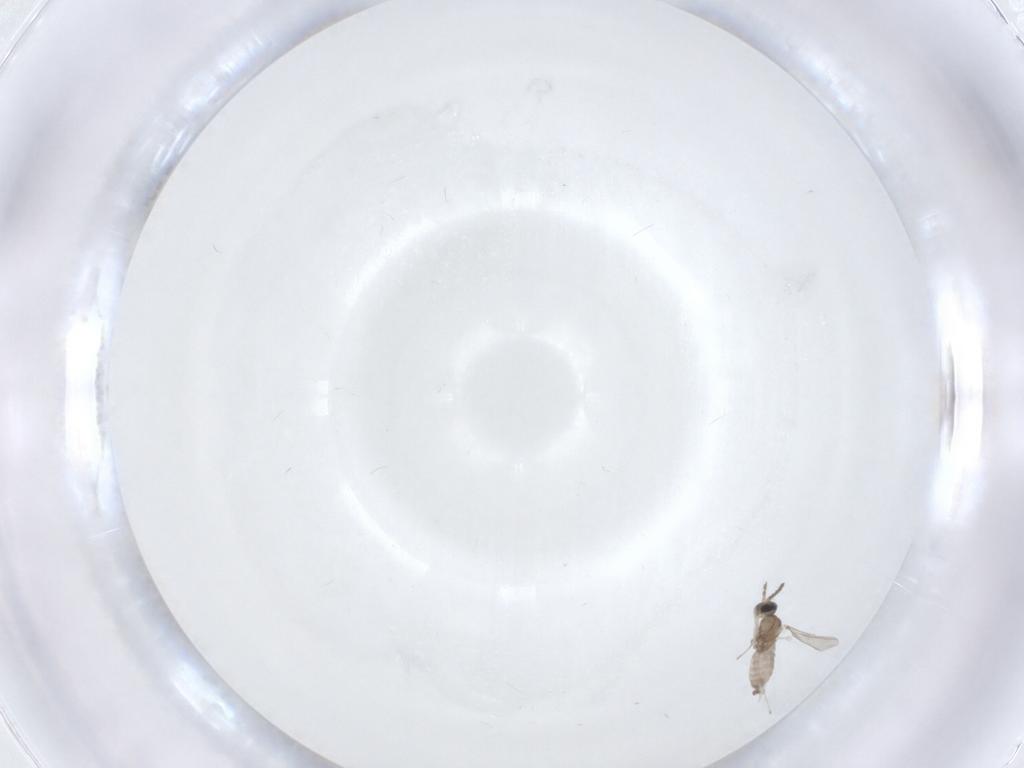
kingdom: Animalia
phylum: Arthropoda
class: Insecta
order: Diptera
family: Cecidomyiidae
